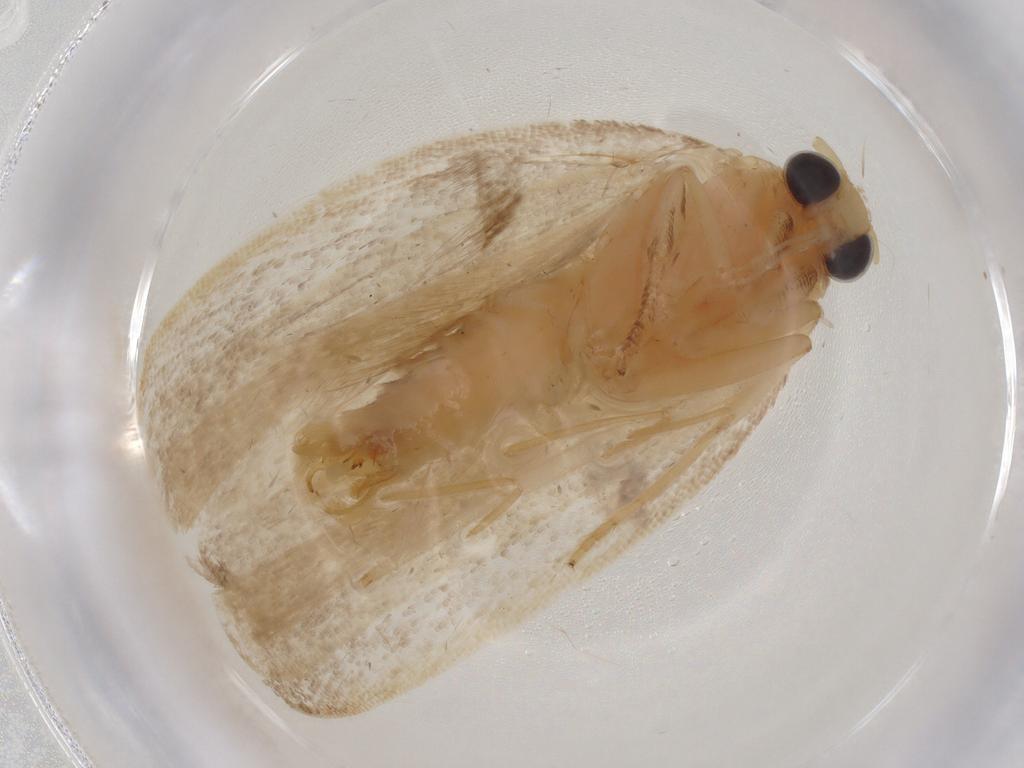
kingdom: Animalia
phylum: Arthropoda
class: Insecta
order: Lepidoptera
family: Depressariidae
